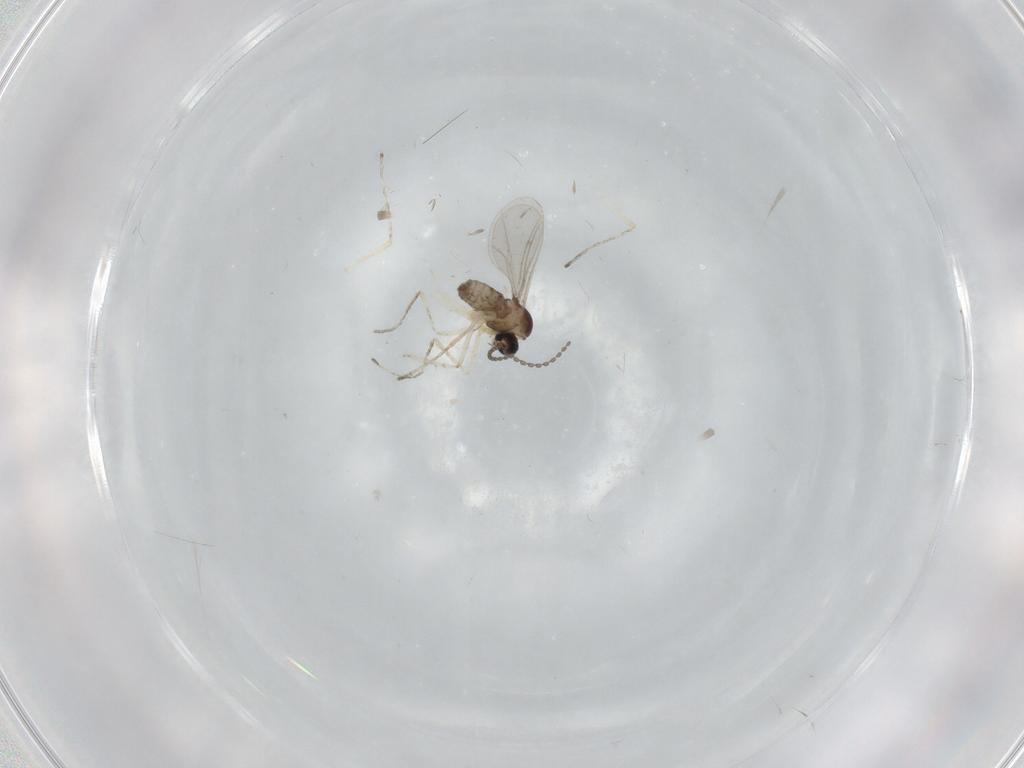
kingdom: Animalia
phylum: Arthropoda
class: Insecta
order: Diptera
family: Cecidomyiidae
